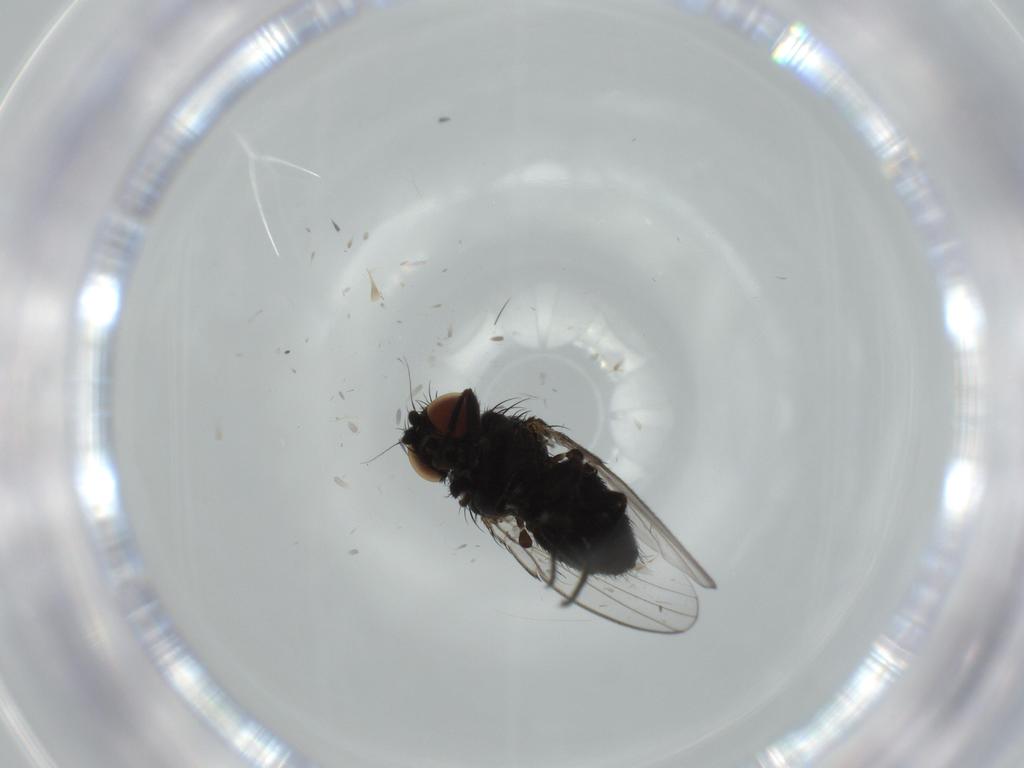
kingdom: Animalia
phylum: Arthropoda
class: Insecta
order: Diptera
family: Milichiidae
